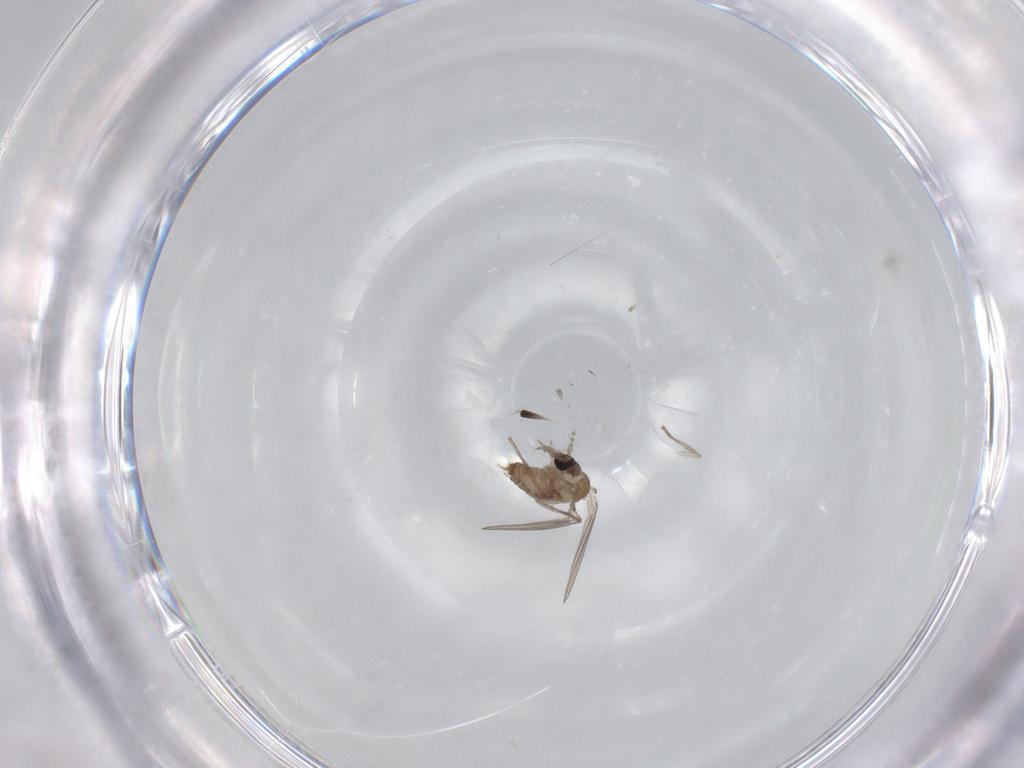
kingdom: Animalia
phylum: Arthropoda
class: Insecta
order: Diptera
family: Psychodidae
